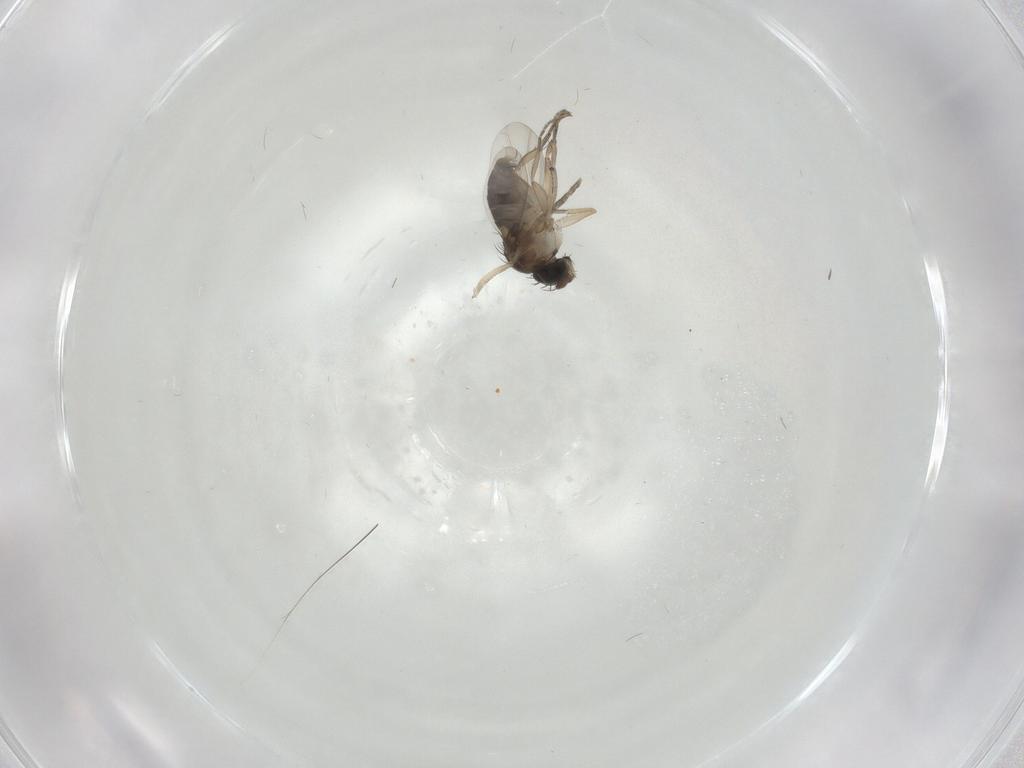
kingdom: Animalia
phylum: Arthropoda
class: Insecta
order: Diptera
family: Phoridae
